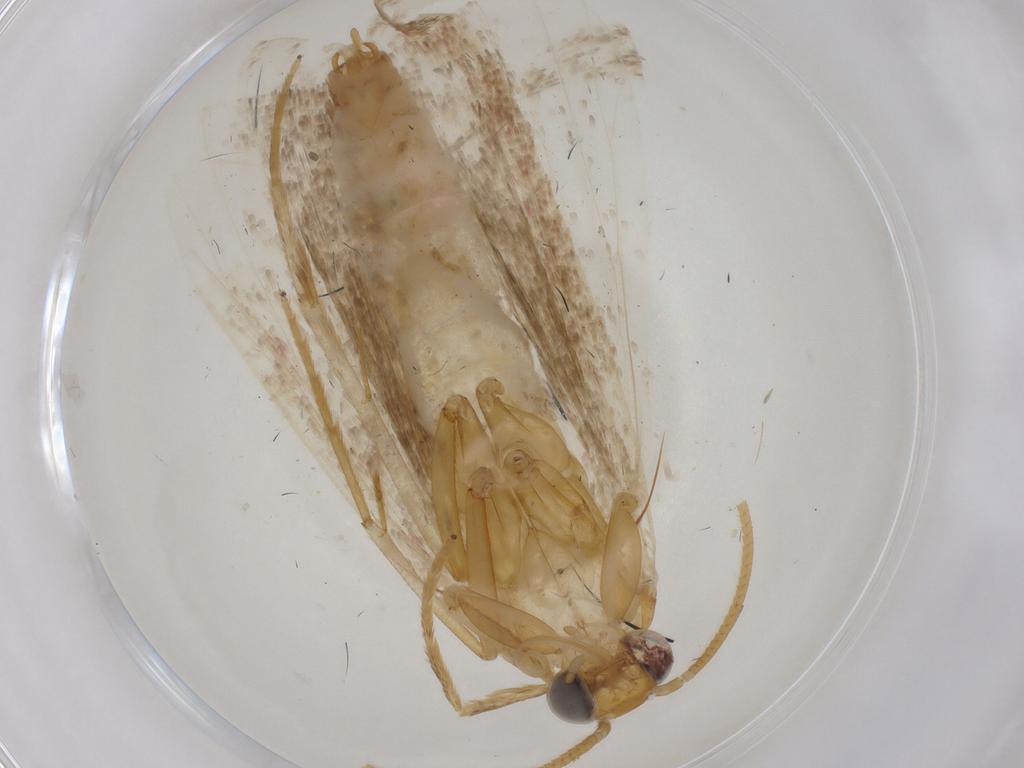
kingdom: Animalia
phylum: Arthropoda
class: Insecta
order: Lepidoptera
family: Pyralidae
